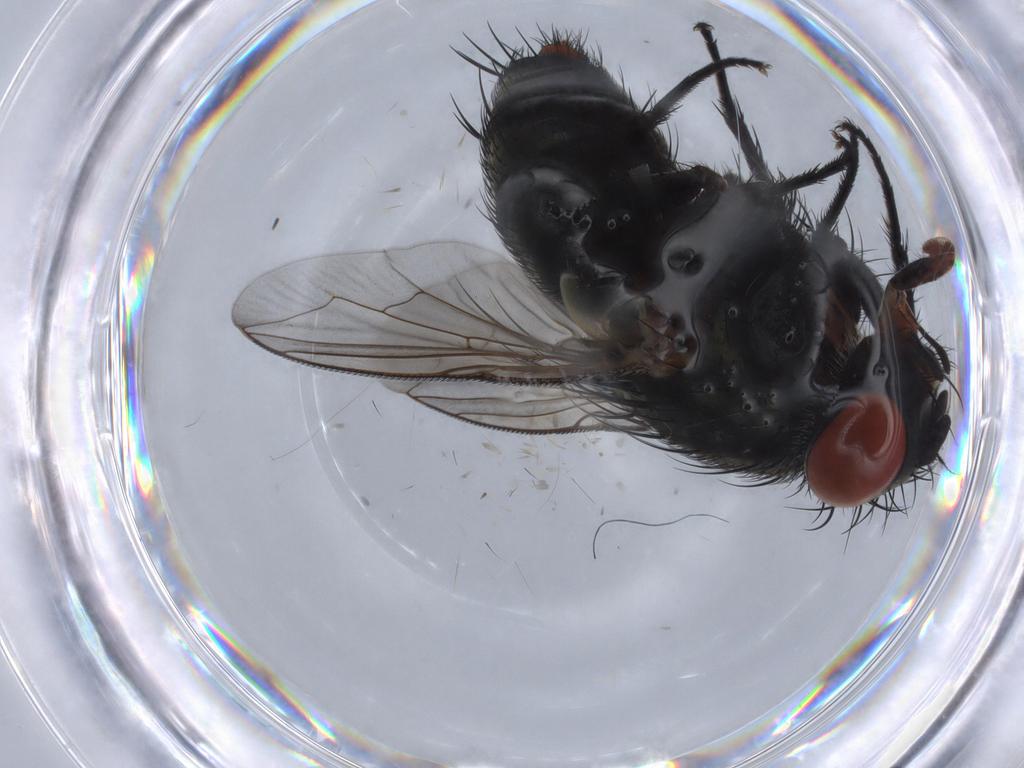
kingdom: Animalia
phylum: Arthropoda
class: Insecta
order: Diptera
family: Sarcophagidae
